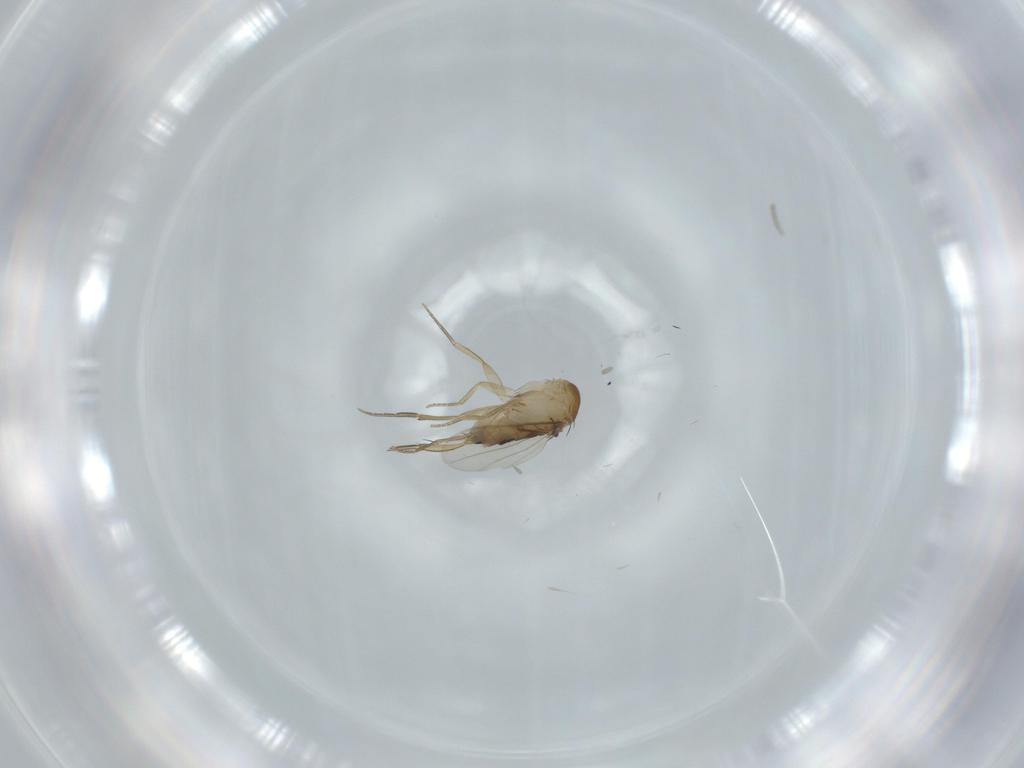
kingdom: Animalia
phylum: Arthropoda
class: Insecta
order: Diptera
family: Phoridae
